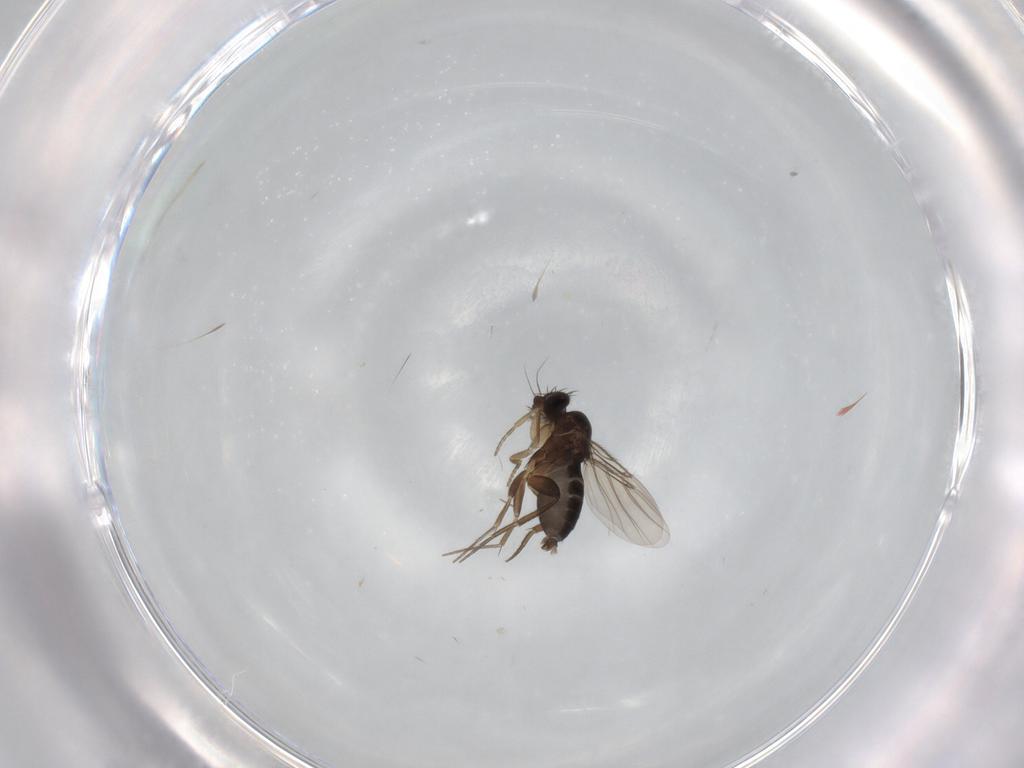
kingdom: Animalia
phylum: Arthropoda
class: Insecta
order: Diptera
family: Phoridae
